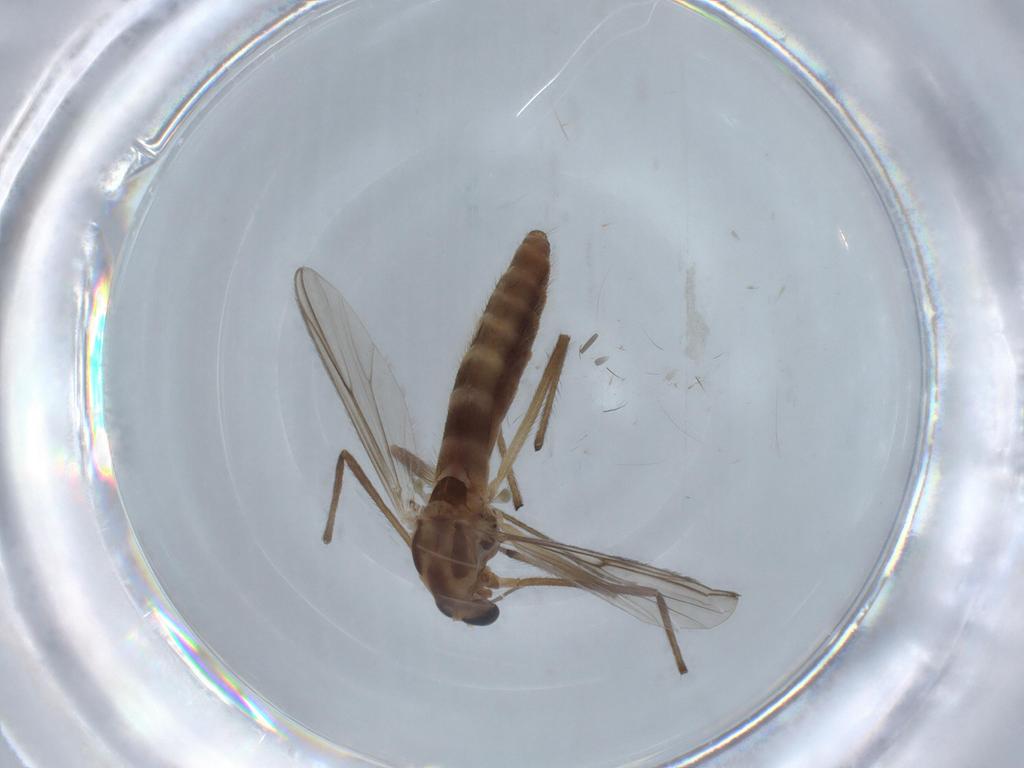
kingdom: Animalia
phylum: Arthropoda
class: Insecta
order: Diptera
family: Chironomidae
